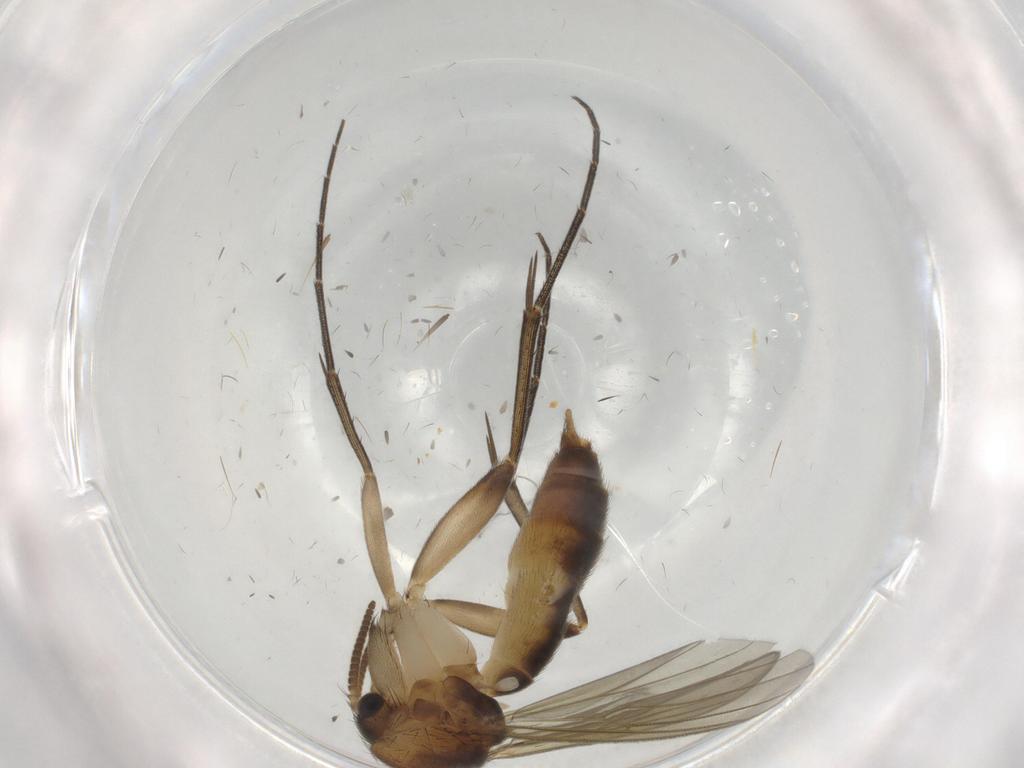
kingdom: Animalia
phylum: Arthropoda
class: Insecta
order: Diptera
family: Mycetophilidae
